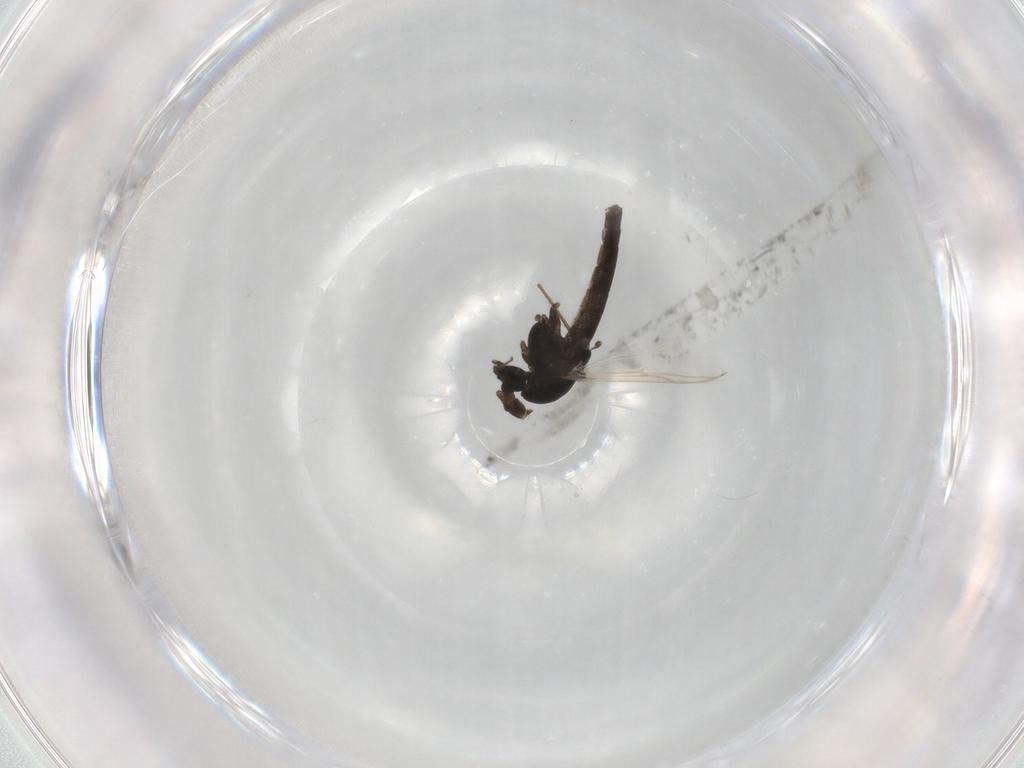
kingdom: Animalia
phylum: Arthropoda
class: Insecta
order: Diptera
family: Chironomidae
